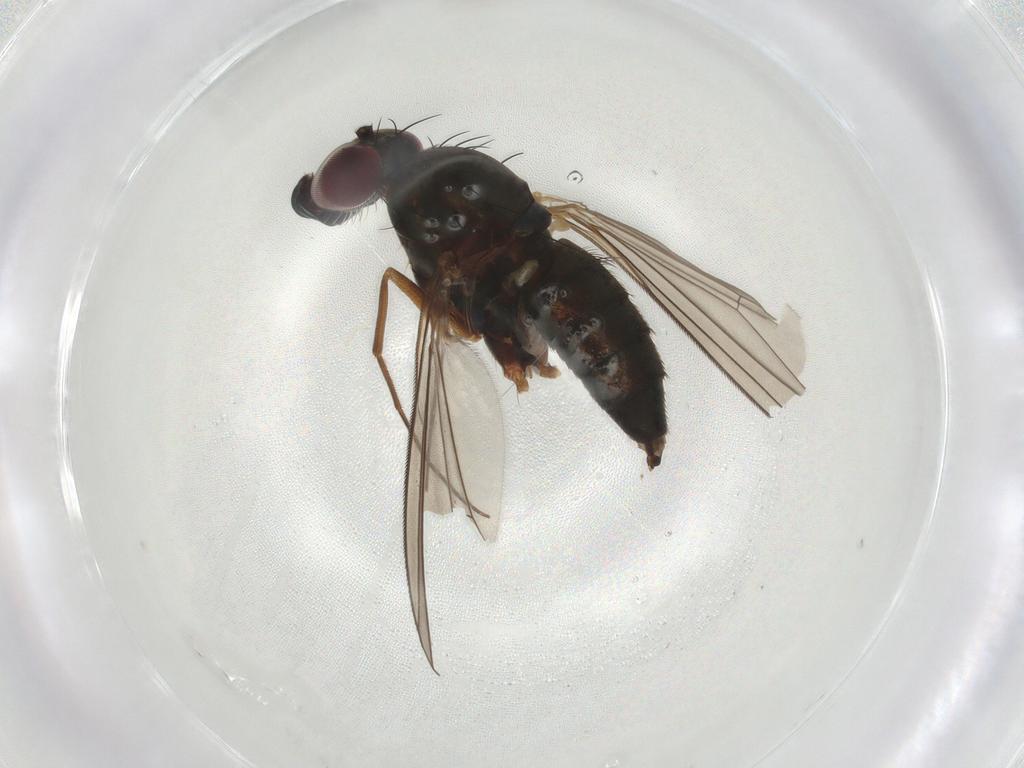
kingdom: Animalia
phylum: Arthropoda
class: Insecta
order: Diptera
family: Cecidomyiidae
